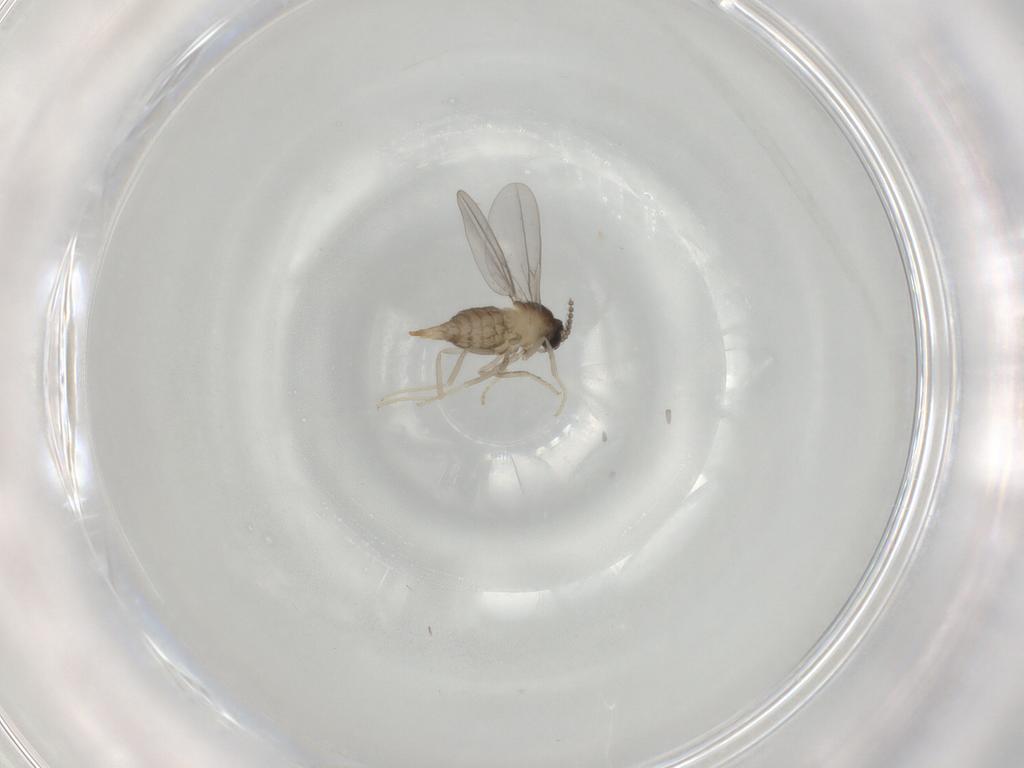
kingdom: Animalia
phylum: Arthropoda
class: Insecta
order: Diptera
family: Cecidomyiidae
